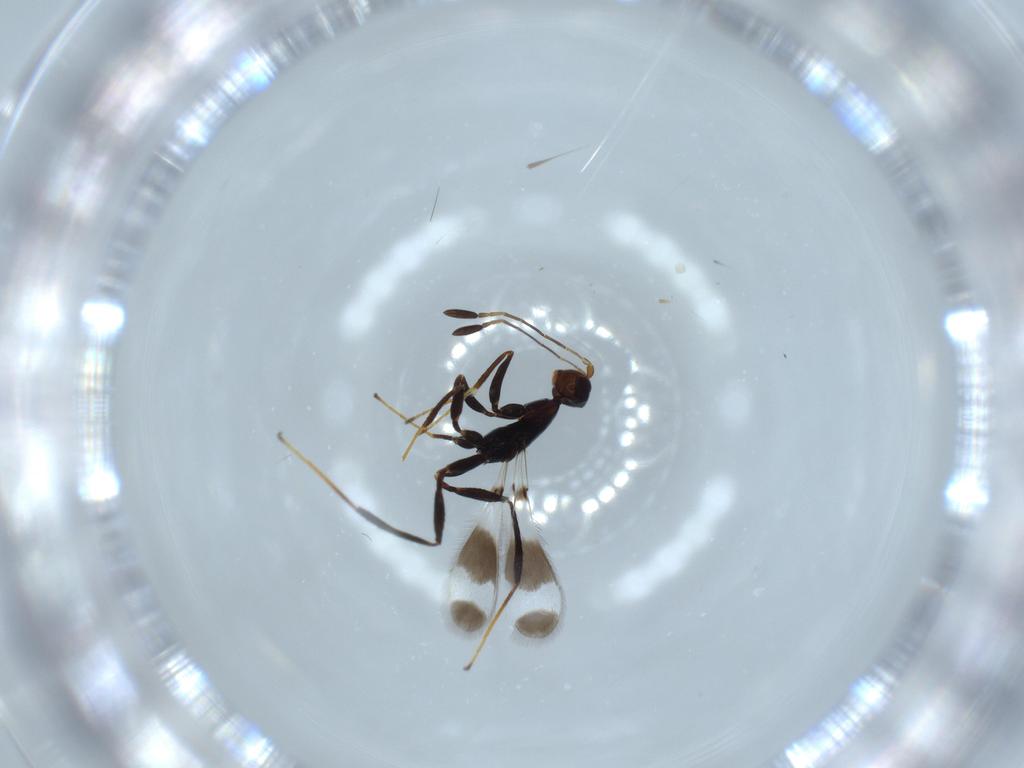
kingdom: Animalia
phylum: Arthropoda
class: Insecta
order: Hymenoptera
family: Mymaridae
